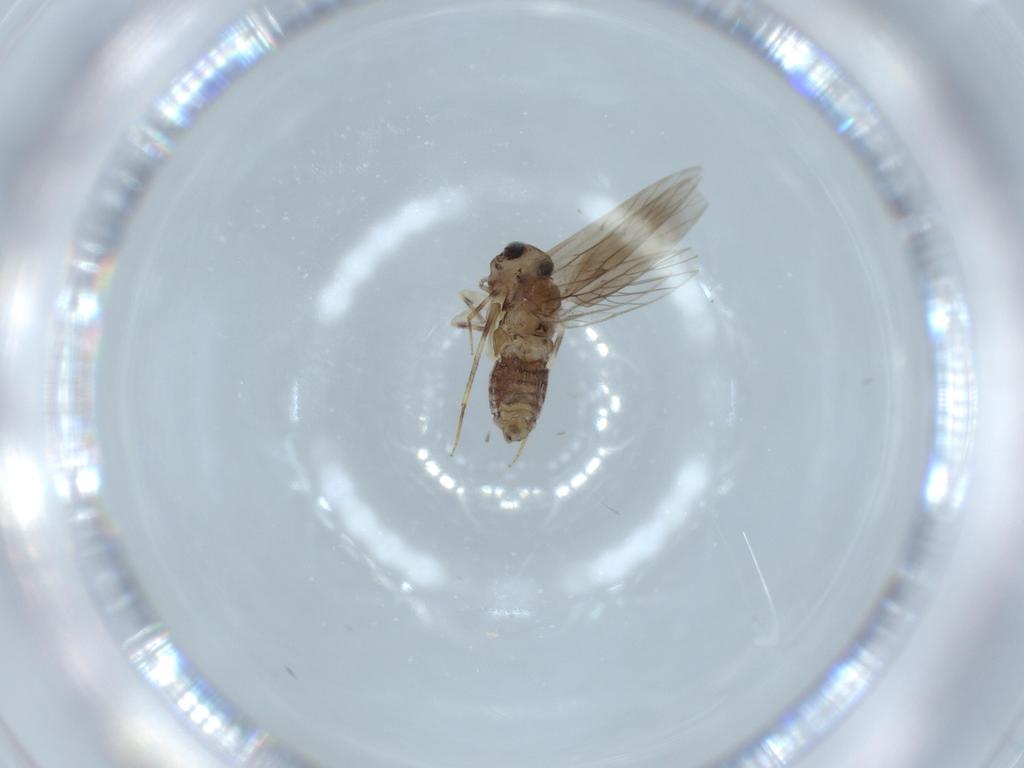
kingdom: Animalia
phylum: Arthropoda
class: Insecta
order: Psocodea
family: Lepidopsocidae
